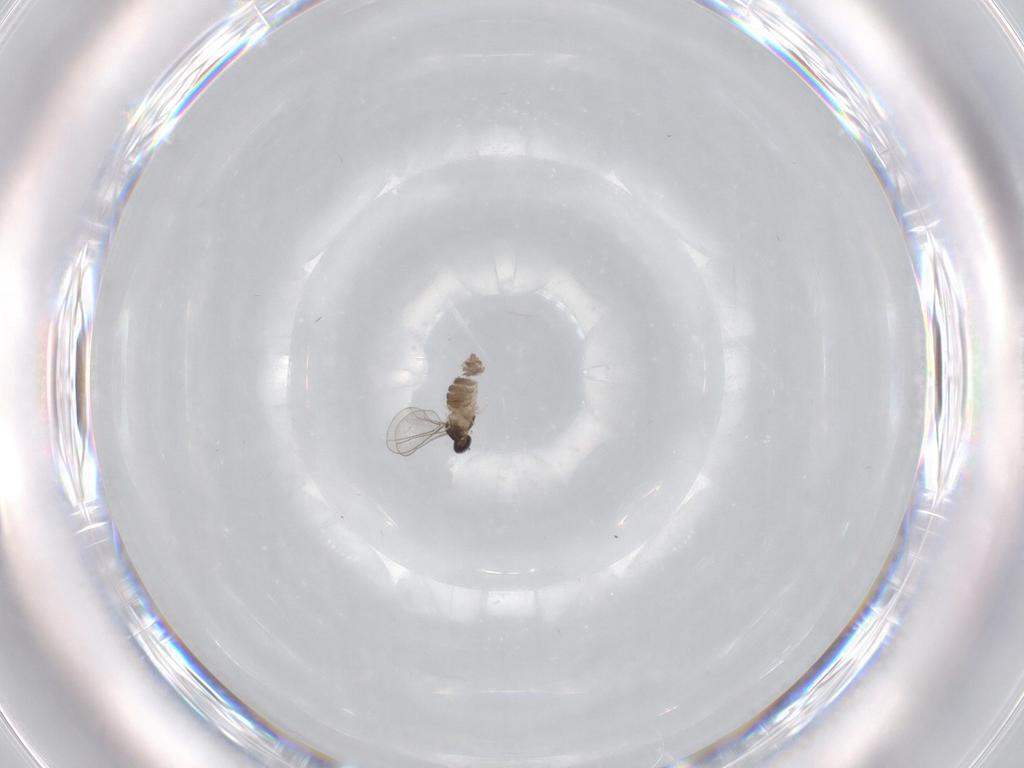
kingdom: Animalia
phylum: Arthropoda
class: Insecta
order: Diptera
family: Cecidomyiidae
